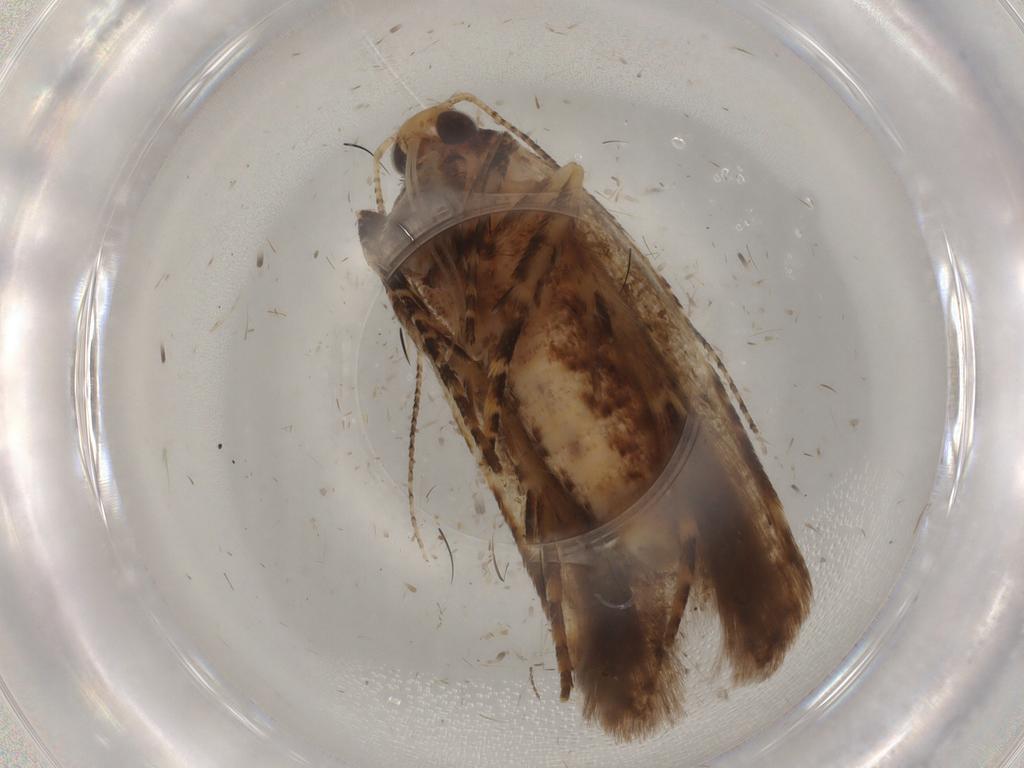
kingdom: Animalia
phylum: Arthropoda
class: Insecta
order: Lepidoptera
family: Gelechiidae
